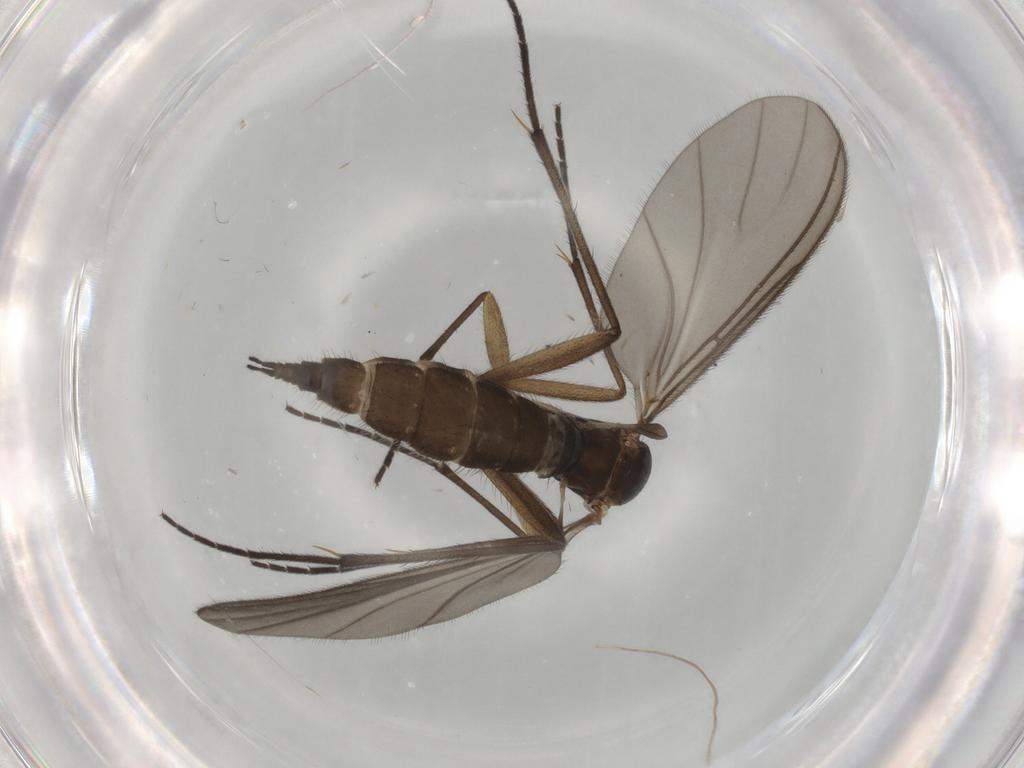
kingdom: Animalia
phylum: Arthropoda
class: Insecta
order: Diptera
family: Sciaridae
